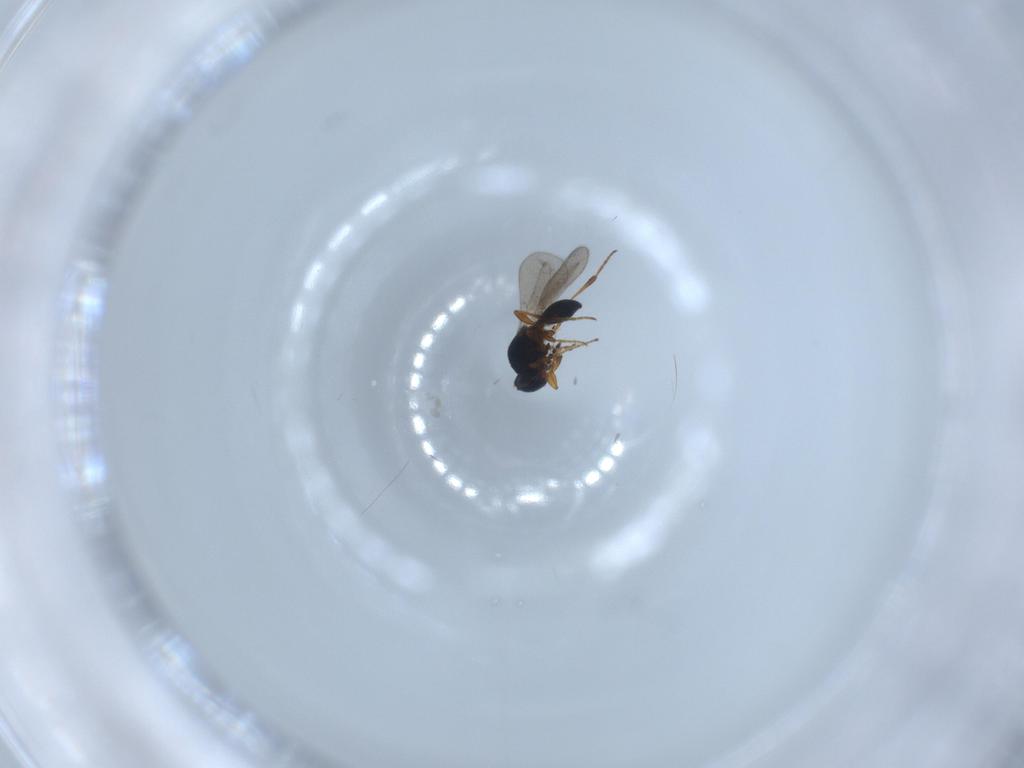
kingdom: Animalia
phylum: Arthropoda
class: Insecta
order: Hymenoptera
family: Platygastridae
